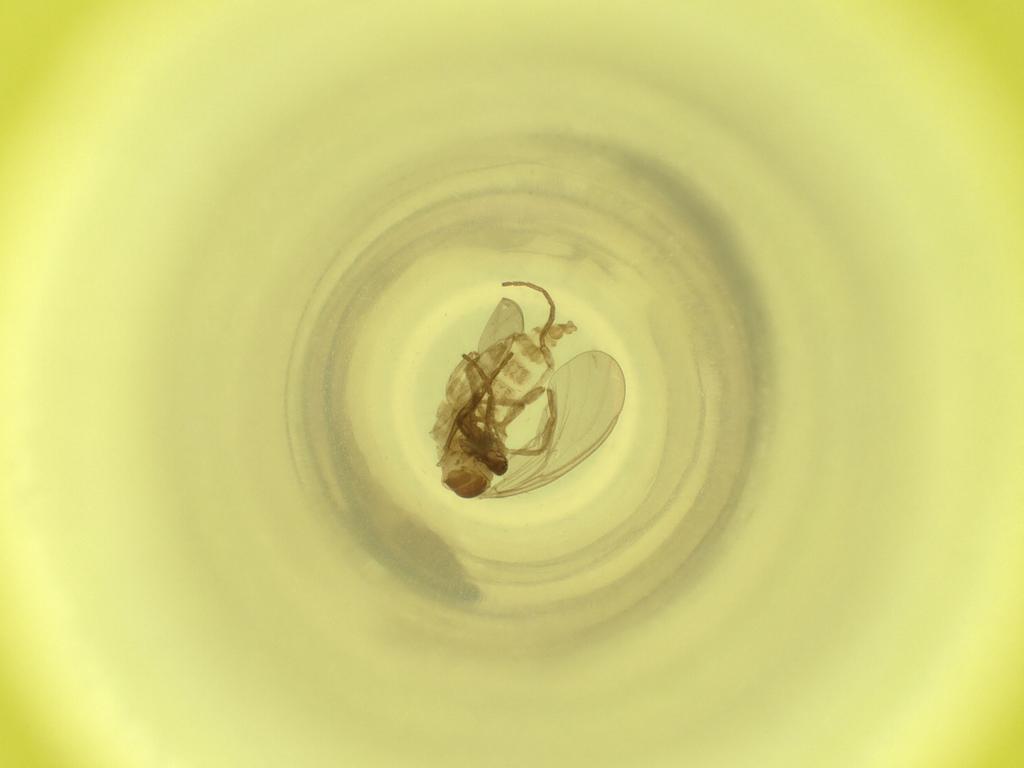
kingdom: Animalia
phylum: Arthropoda
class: Insecta
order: Diptera
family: Cecidomyiidae
